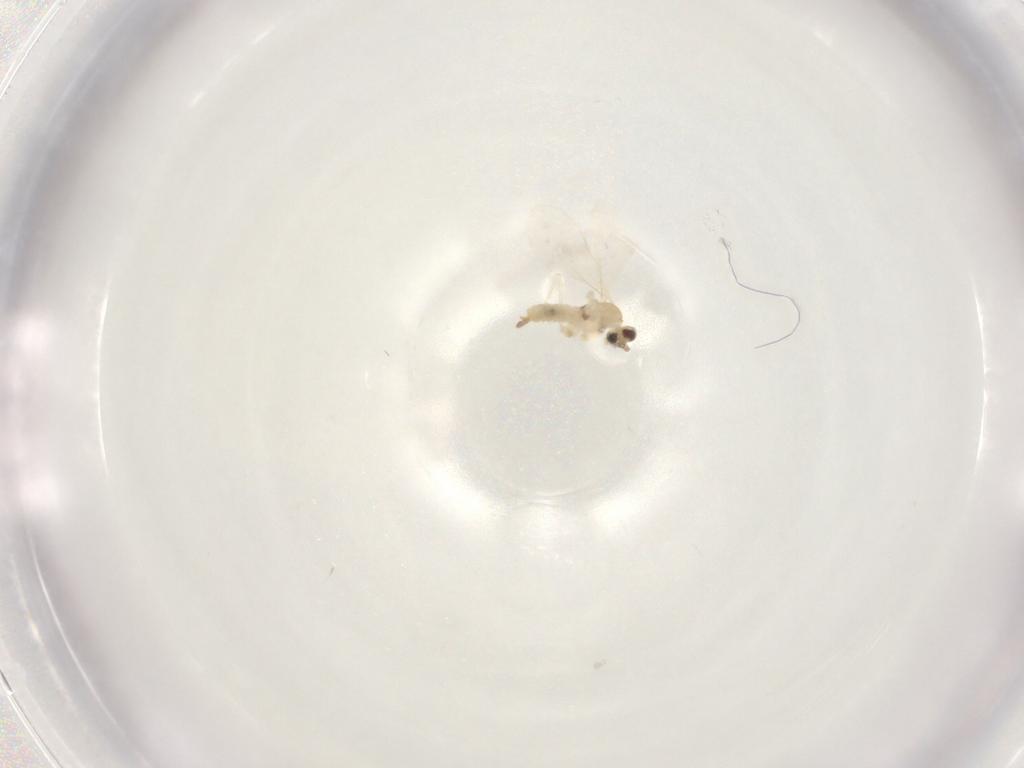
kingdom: Animalia
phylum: Arthropoda
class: Insecta
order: Diptera
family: Cecidomyiidae
